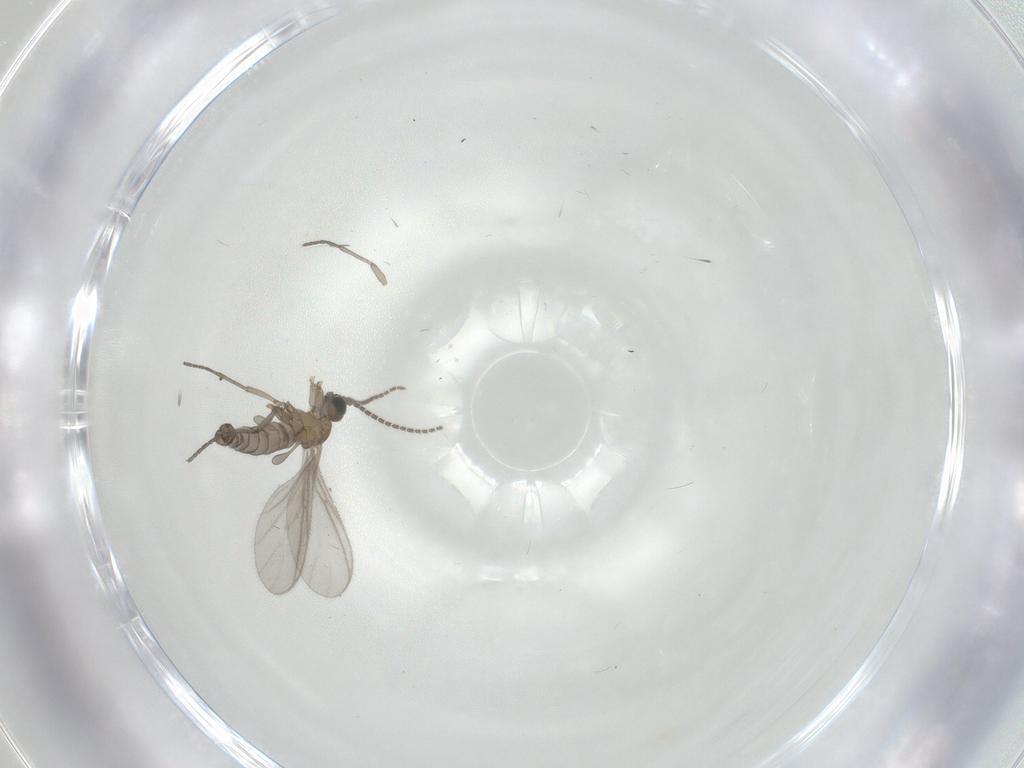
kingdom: Animalia
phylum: Arthropoda
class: Insecta
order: Diptera
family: Sciaridae
